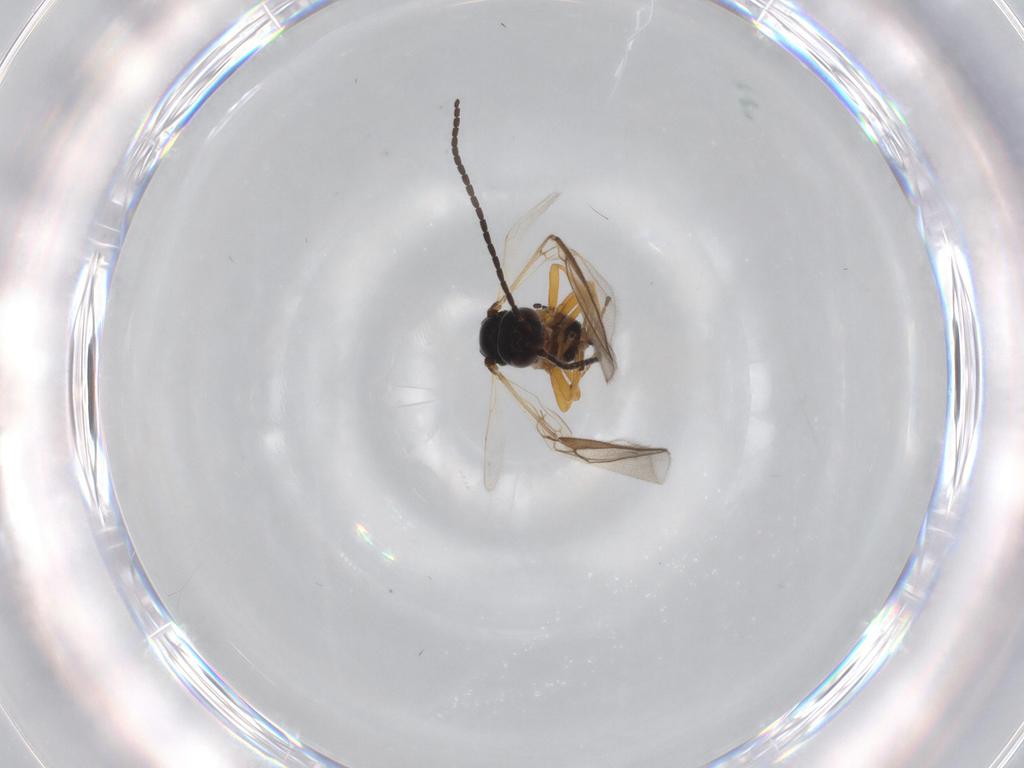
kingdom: Animalia
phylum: Arthropoda
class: Insecta
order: Hymenoptera
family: Braconidae
